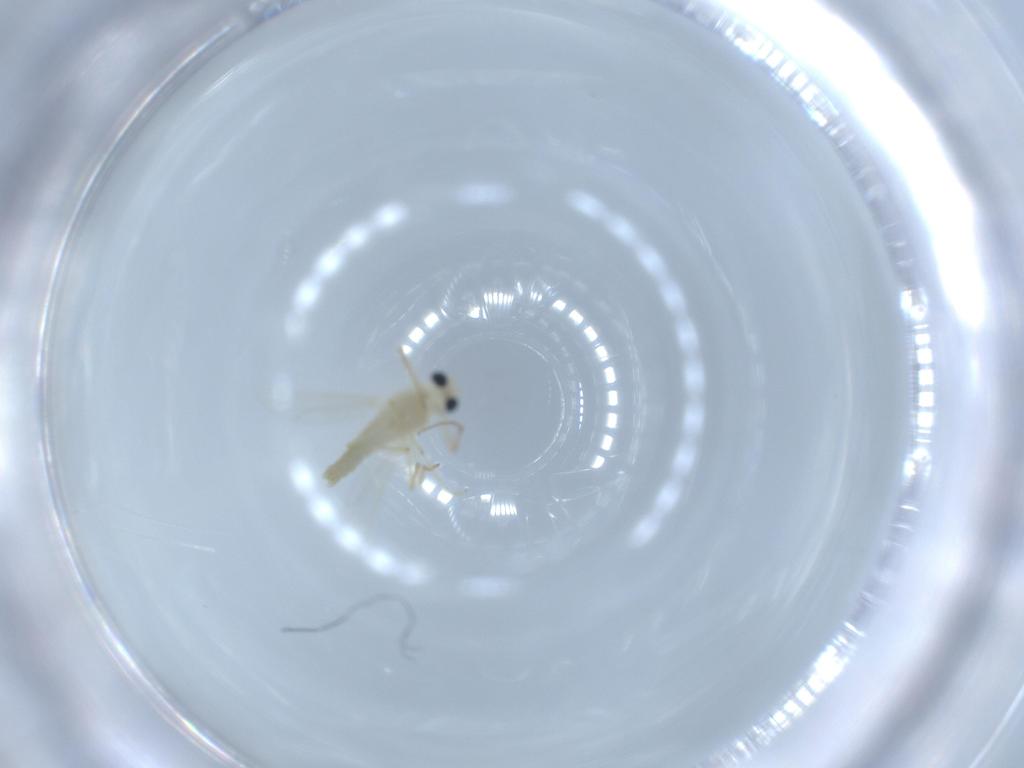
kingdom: Animalia
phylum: Arthropoda
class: Insecta
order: Diptera
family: Chironomidae
